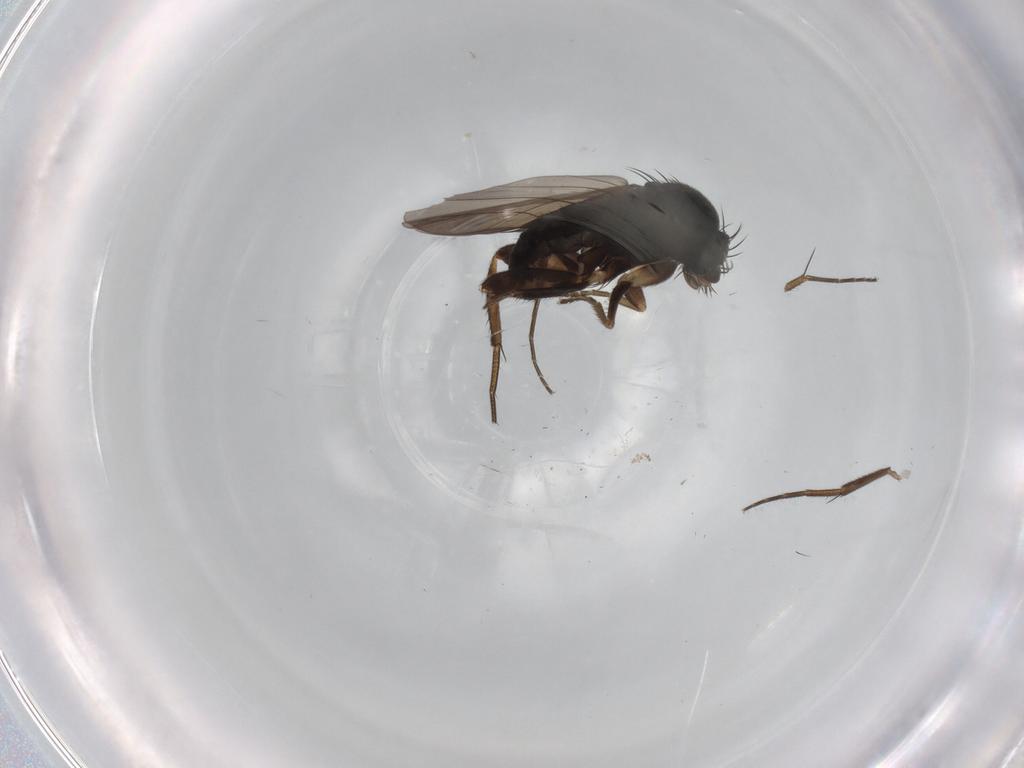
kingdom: Animalia
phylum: Arthropoda
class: Insecta
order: Diptera
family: Phoridae
